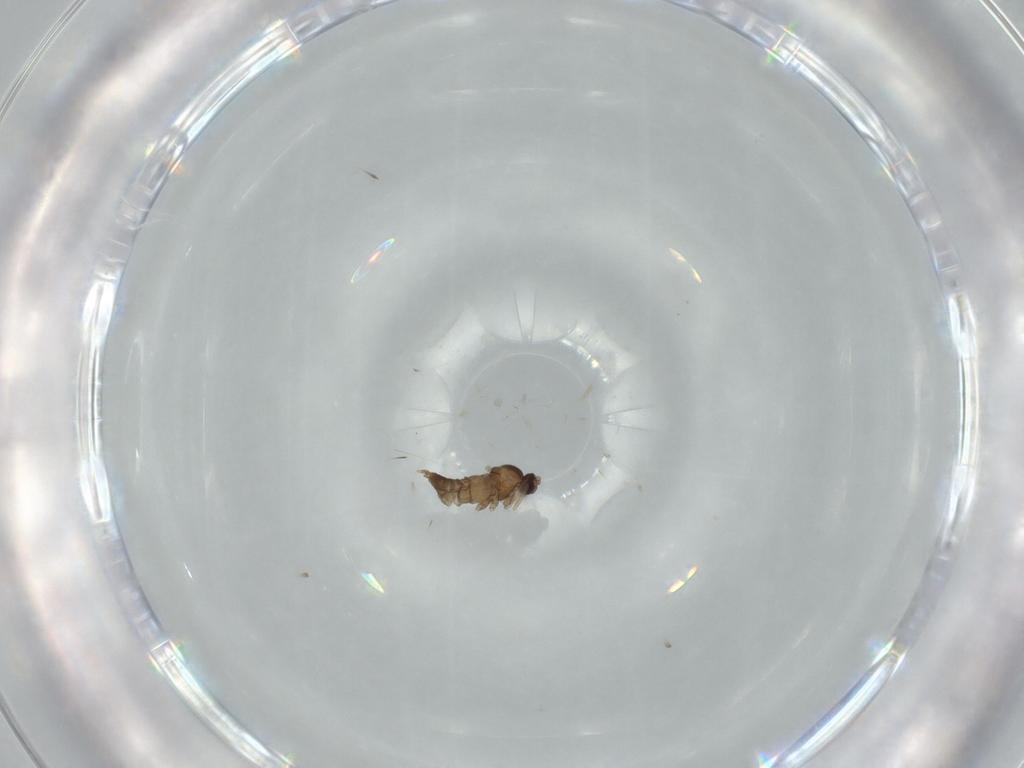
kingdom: Animalia
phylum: Arthropoda
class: Insecta
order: Diptera
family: Cecidomyiidae
